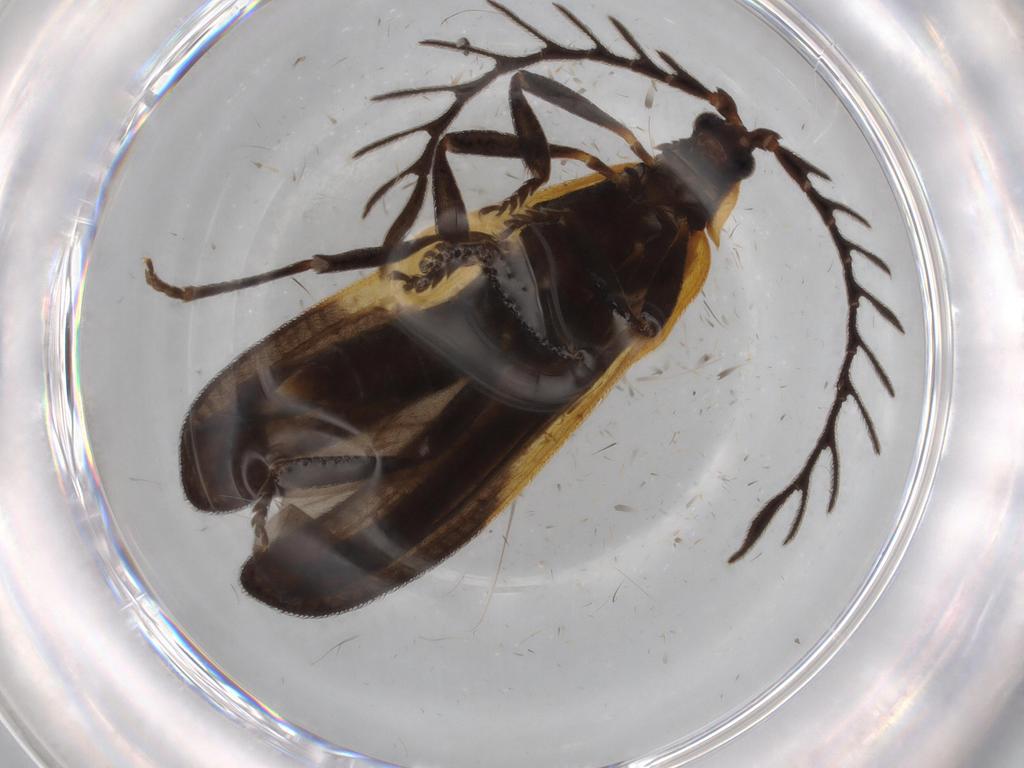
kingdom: Animalia
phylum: Arthropoda
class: Insecta
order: Coleoptera
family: Lycidae
